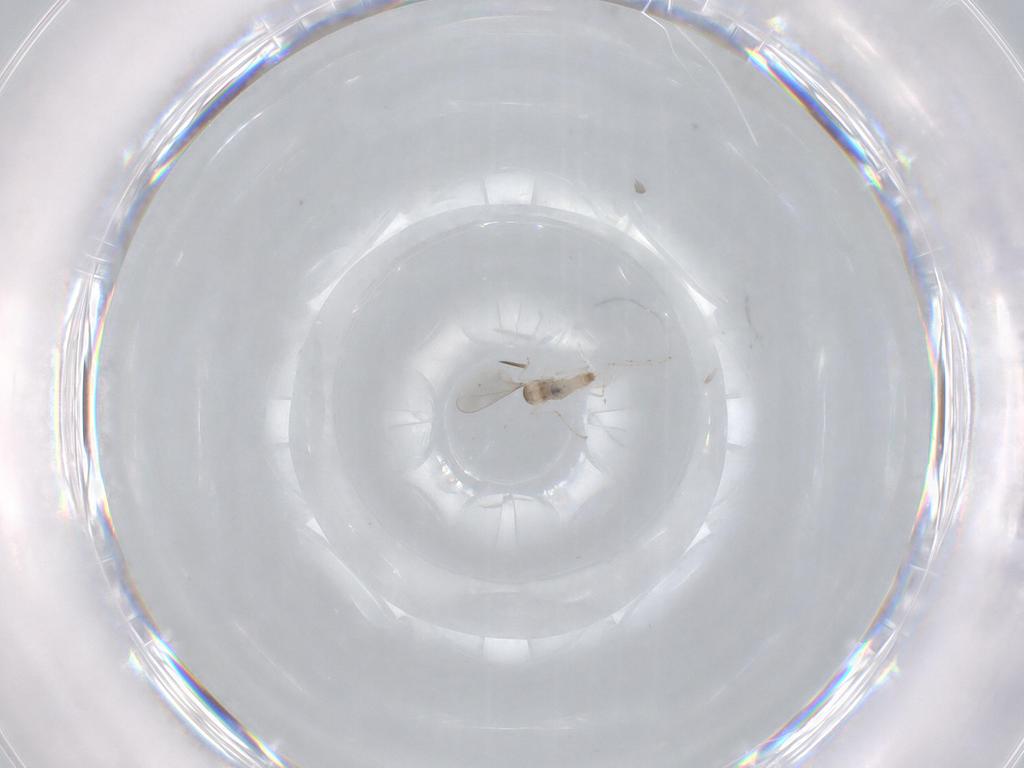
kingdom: Animalia
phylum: Arthropoda
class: Insecta
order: Diptera
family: Cecidomyiidae
